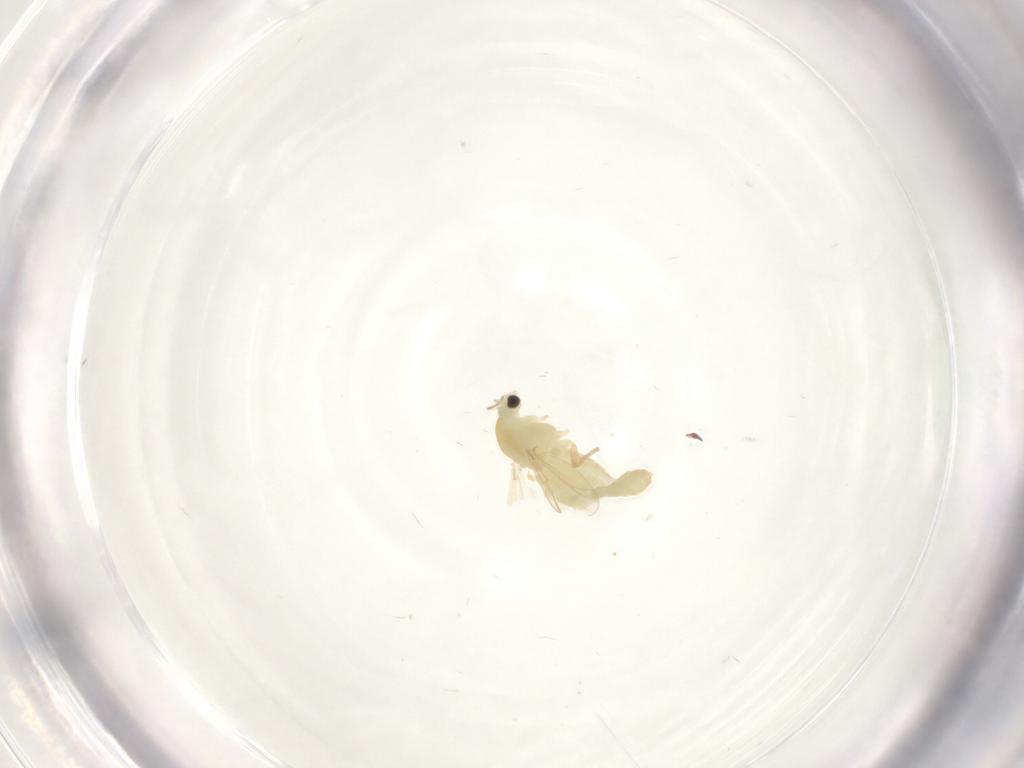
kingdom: Animalia
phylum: Arthropoda
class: Insecta
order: Diptera
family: Chironomidae
